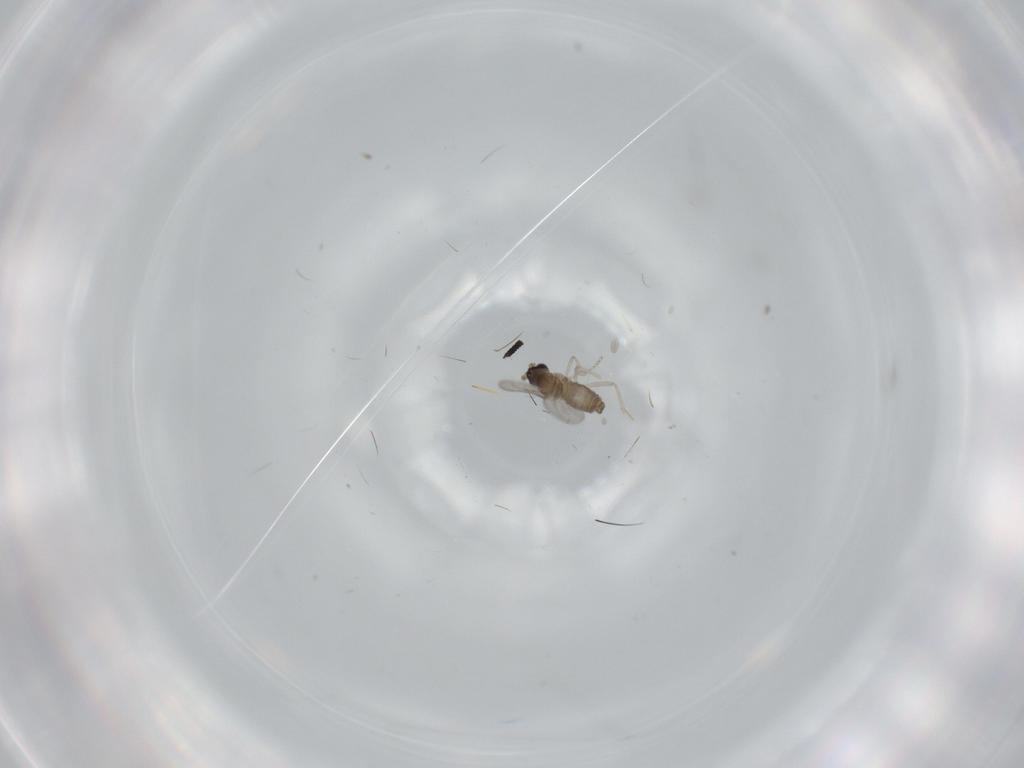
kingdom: Animalia
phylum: Arthropoda
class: Insecta
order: Diptera
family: Cecidomyiidae
